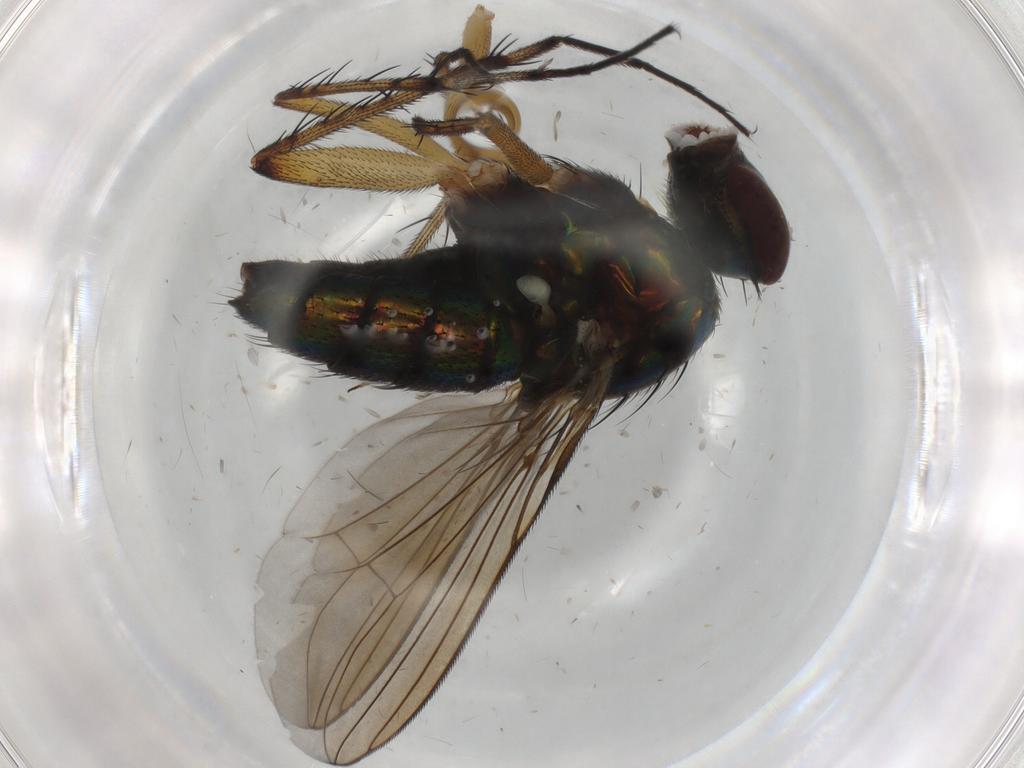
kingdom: Animalia
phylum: Arthropoda
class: Insecta
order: Diptera
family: Dolichopodidae
